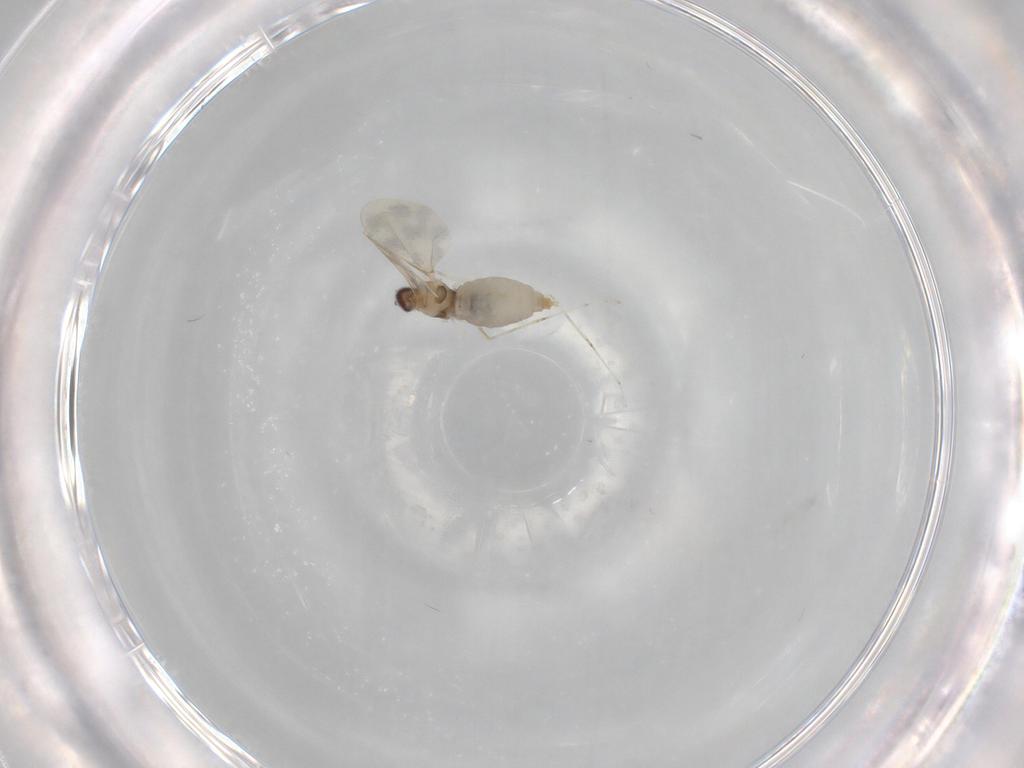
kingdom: Animalia
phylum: Arthropoda
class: Insecta
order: Diptera
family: Cecidomyiidae
